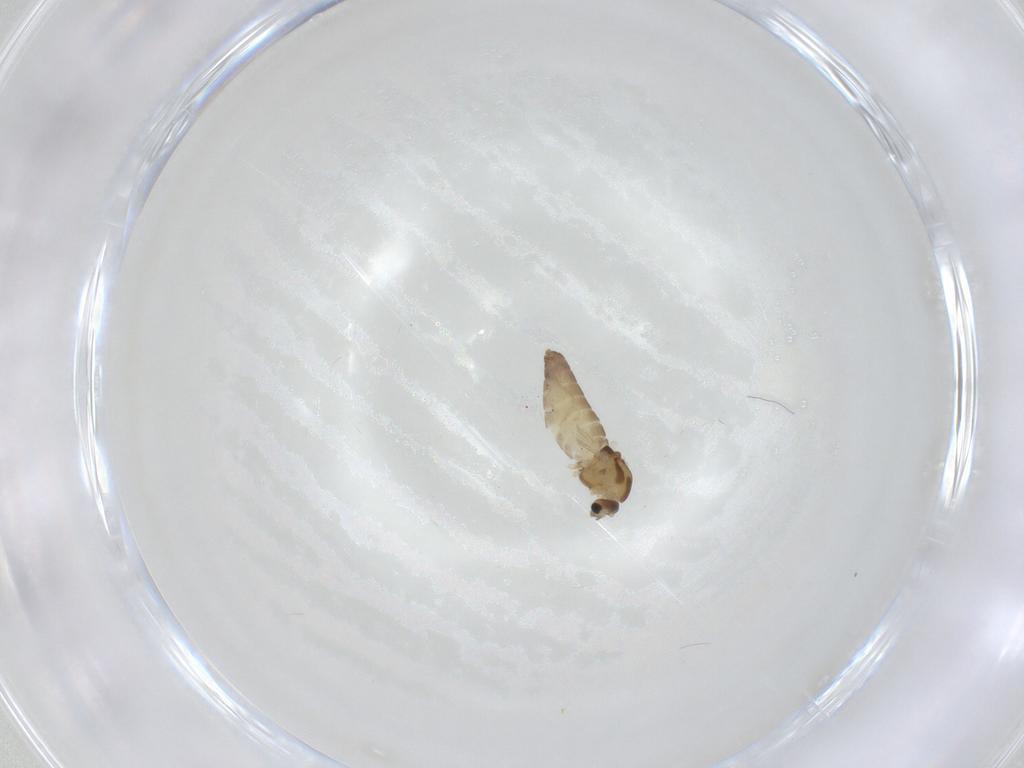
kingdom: Animalia
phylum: Arthropoda
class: Insecta
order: Diptera
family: Chironomidae
